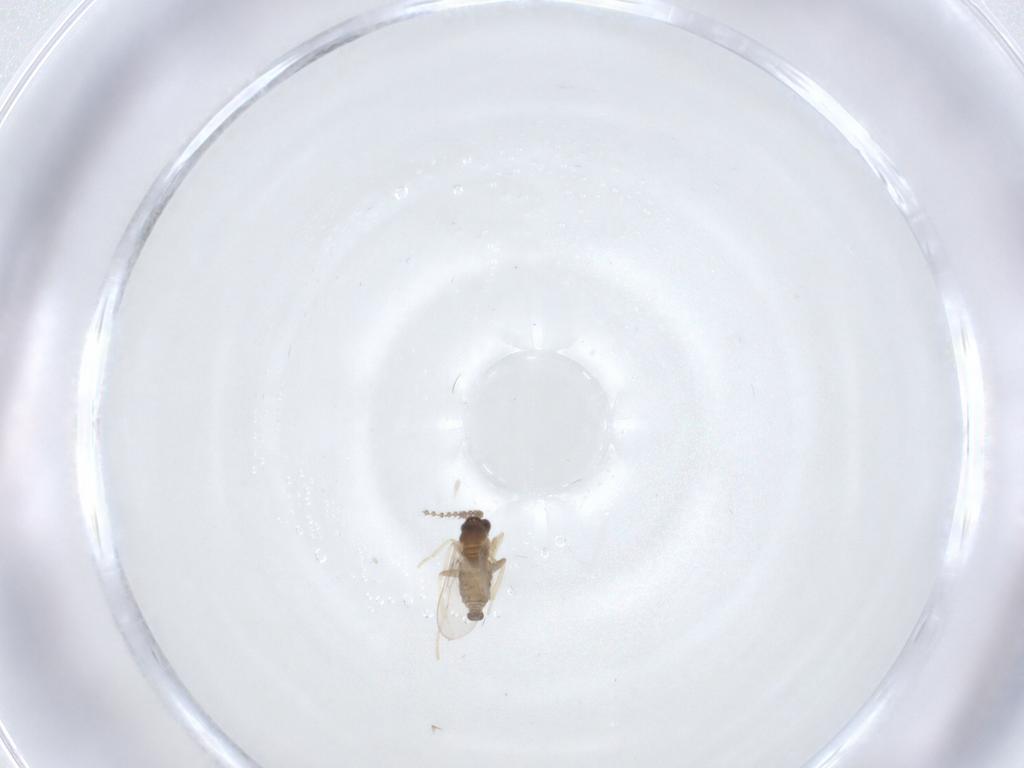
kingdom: Animalia
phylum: Arthropoda
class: Insecta
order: Diptera
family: Cecidomyiidae
